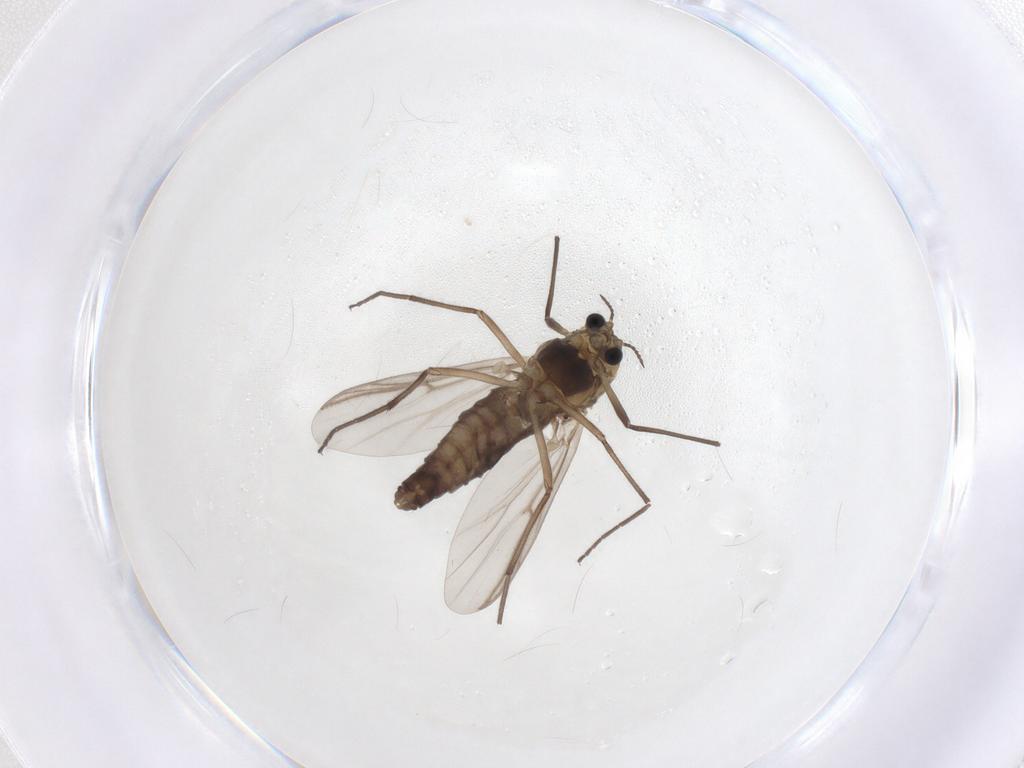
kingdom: Animalia
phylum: Arthropoda
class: Insecta
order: Diptera
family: Chironomidae
